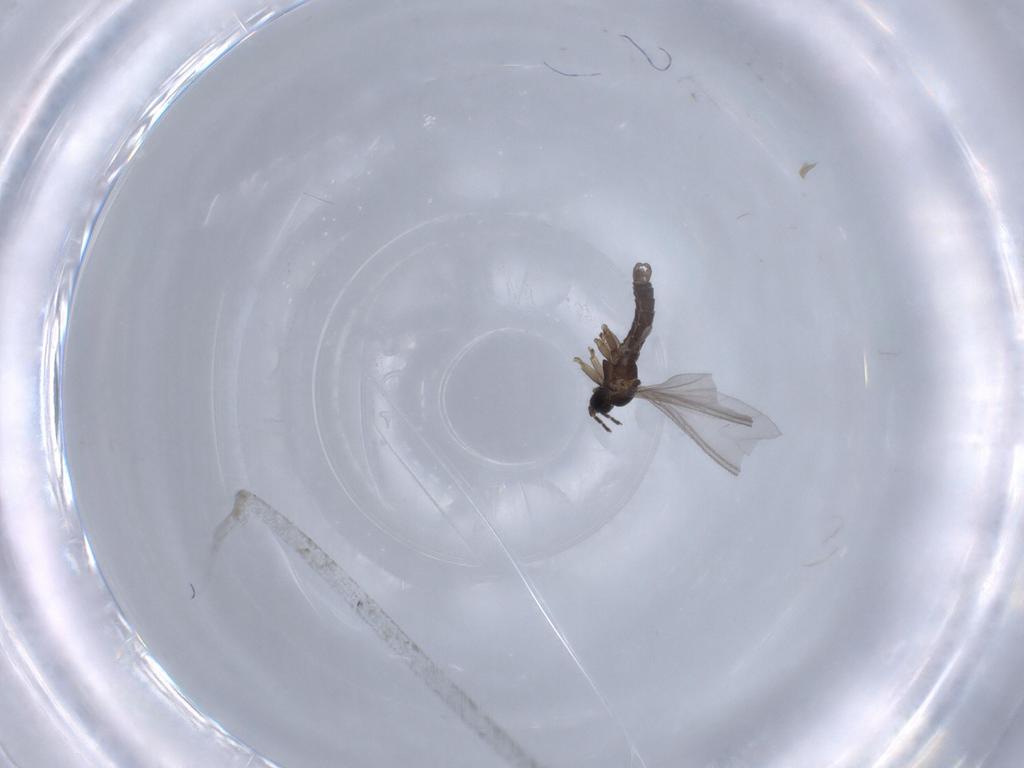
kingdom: Animalia
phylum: Arthropoda
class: Insecta
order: Diptera
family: Sciaridae
